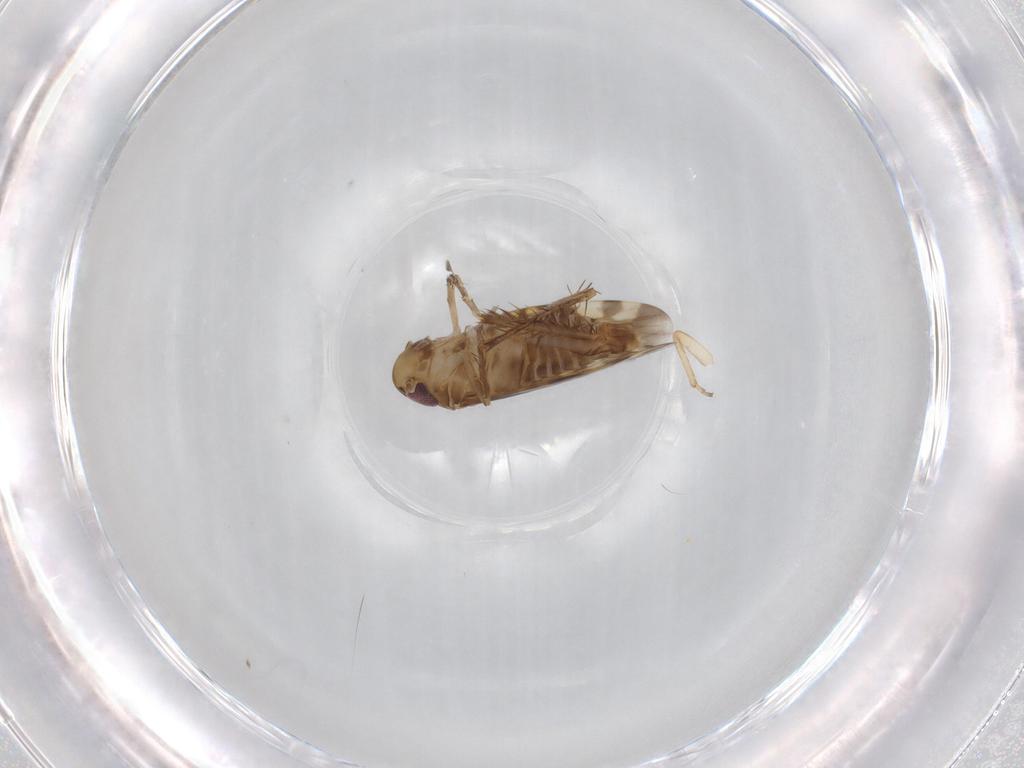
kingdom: Animalia
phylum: Arthropoda
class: Insecta
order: Hemiptera
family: Cicadellidae
